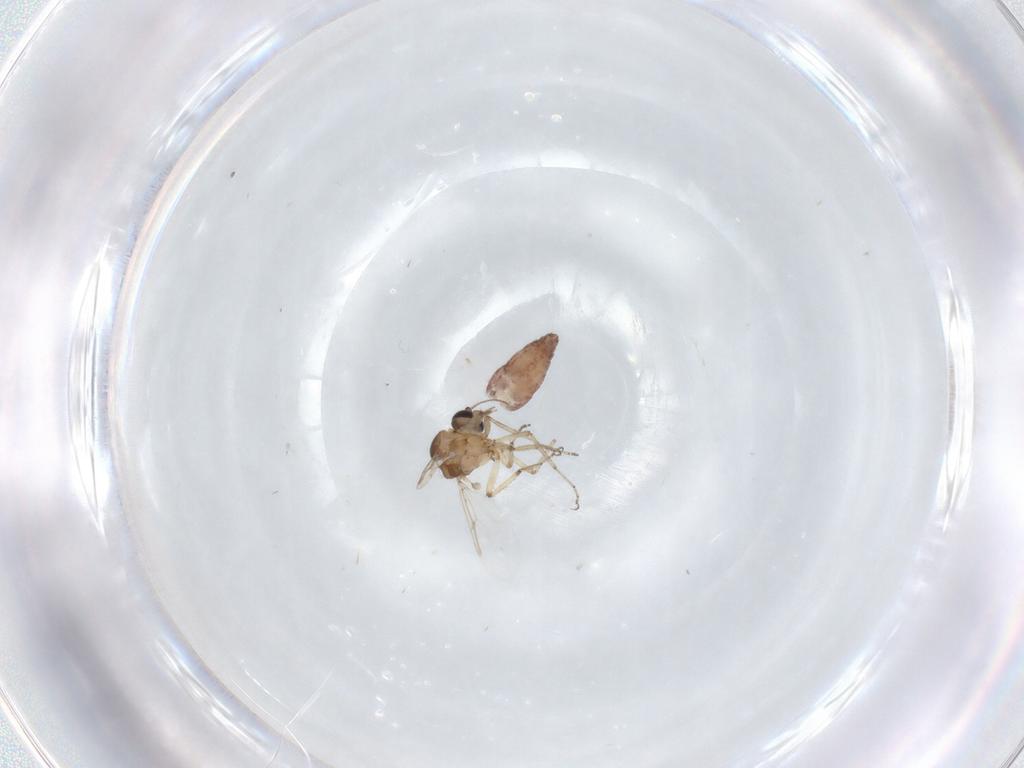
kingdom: Animalia
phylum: Arthropoda
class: Insecta
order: Diptera
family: Ceratopogonidae
